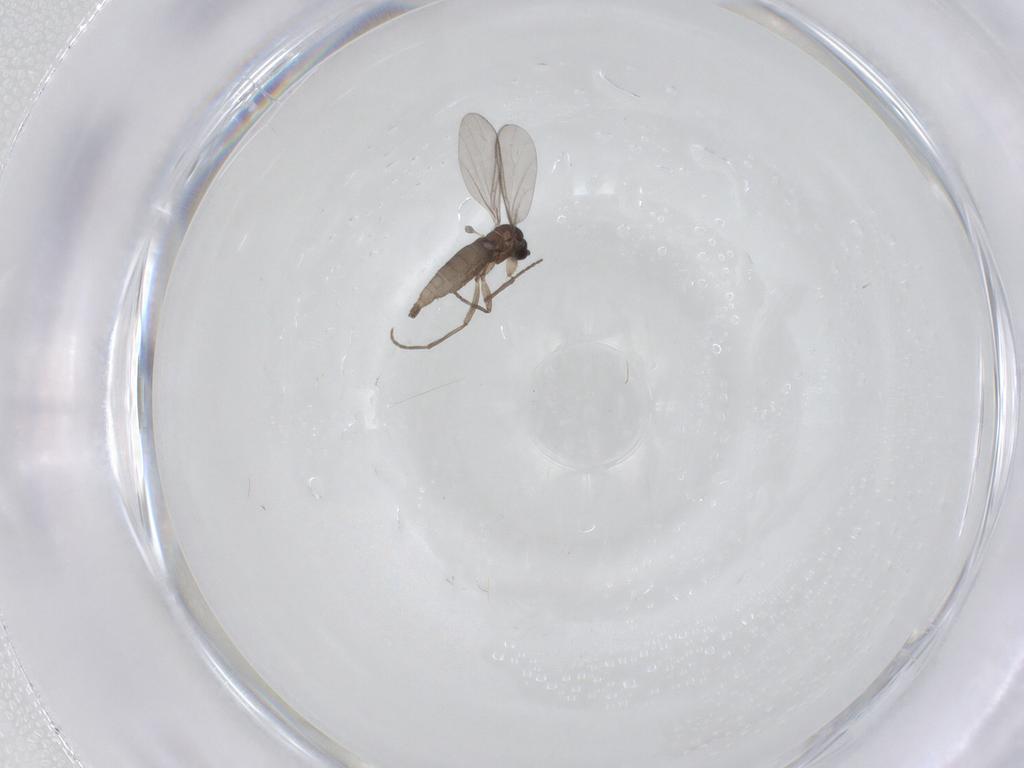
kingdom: Animalia
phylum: Arthropoda
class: Insecta
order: Diptera
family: Sciaridae
